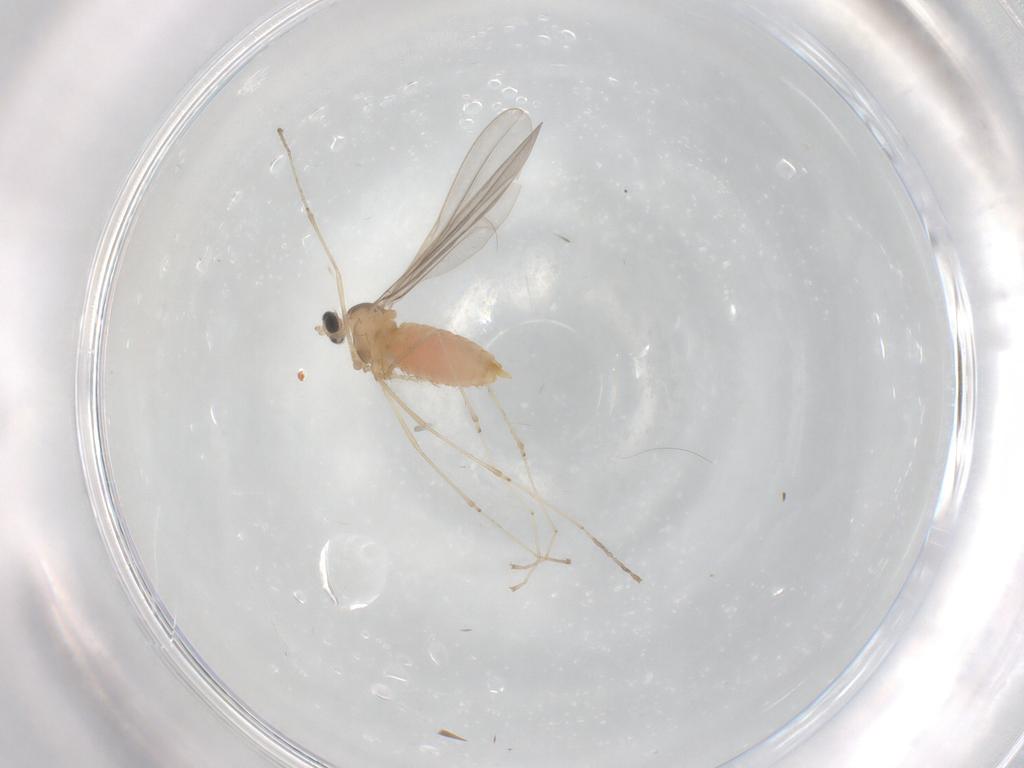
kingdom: Animalia
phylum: Arthropoda
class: Insecta
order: Diptera
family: Cecidomyiidae
